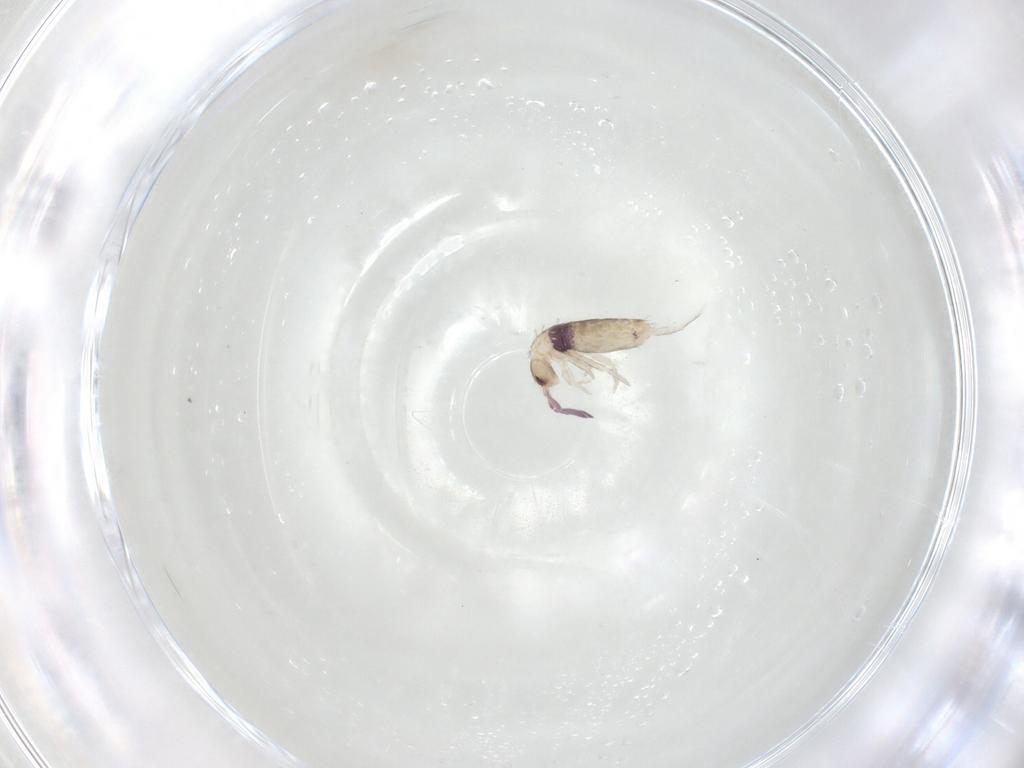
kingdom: Animalia
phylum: Arthropoda
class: Collembola
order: Entomobryomorpha
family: Entomobryidae
